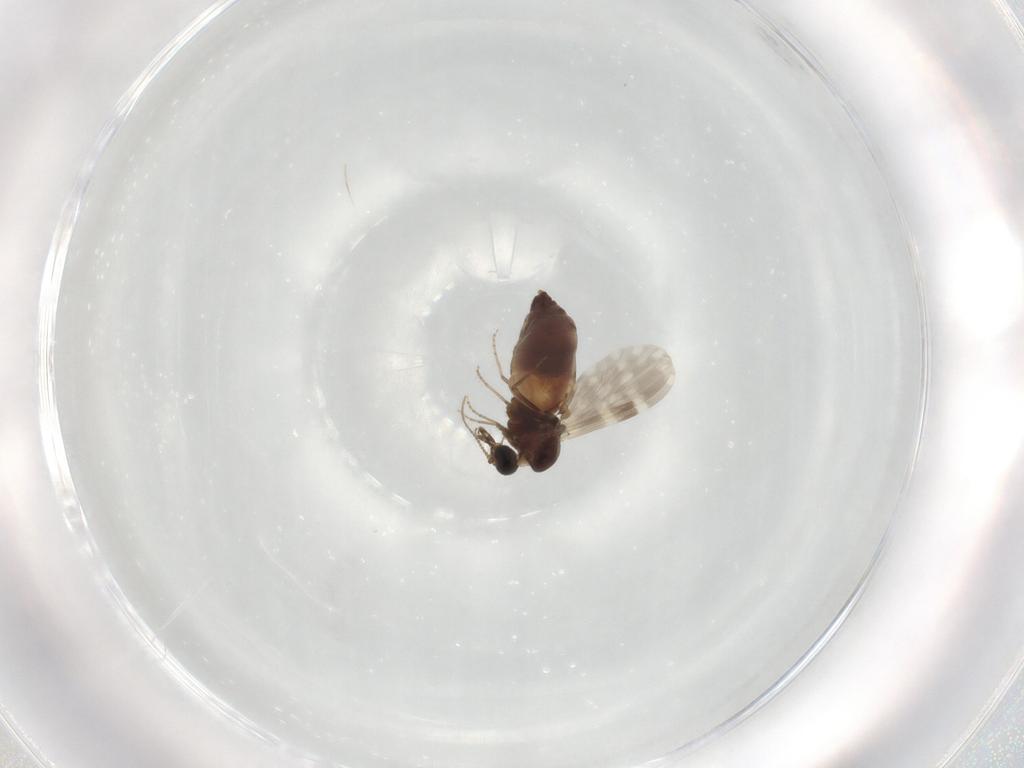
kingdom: Animalia
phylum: Arthropoda
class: Insecta
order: Diptera
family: Ceratopogonidae
